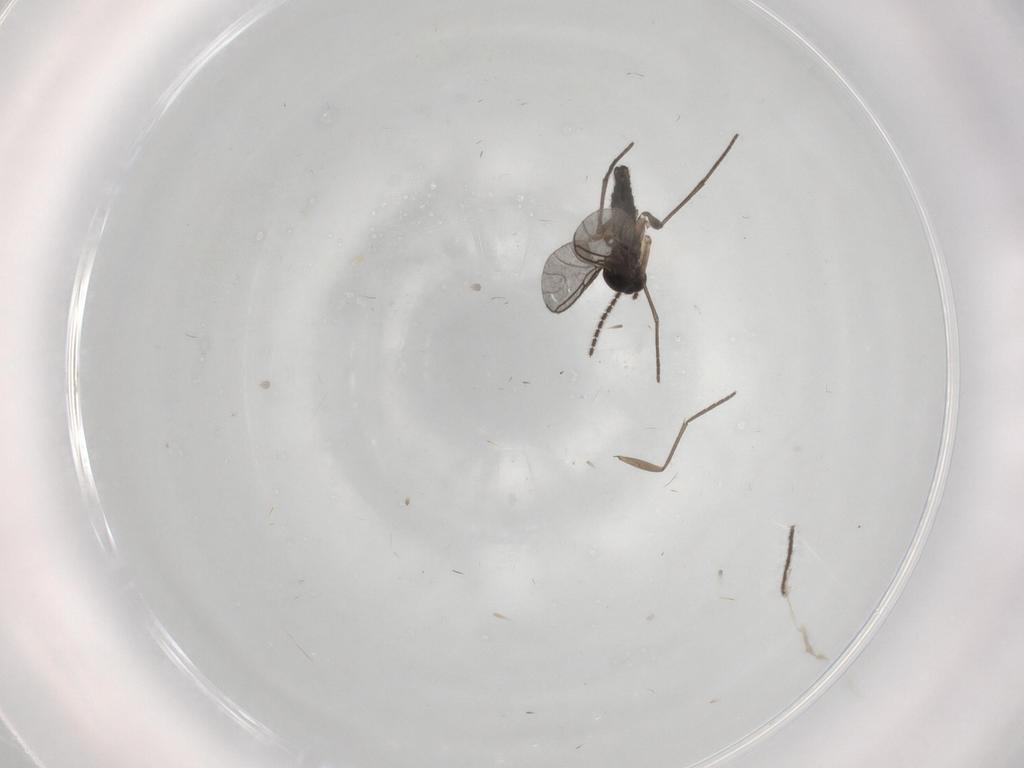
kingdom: Animalia
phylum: Arthropoda
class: Insecta
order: Diptera
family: Sciaridae
